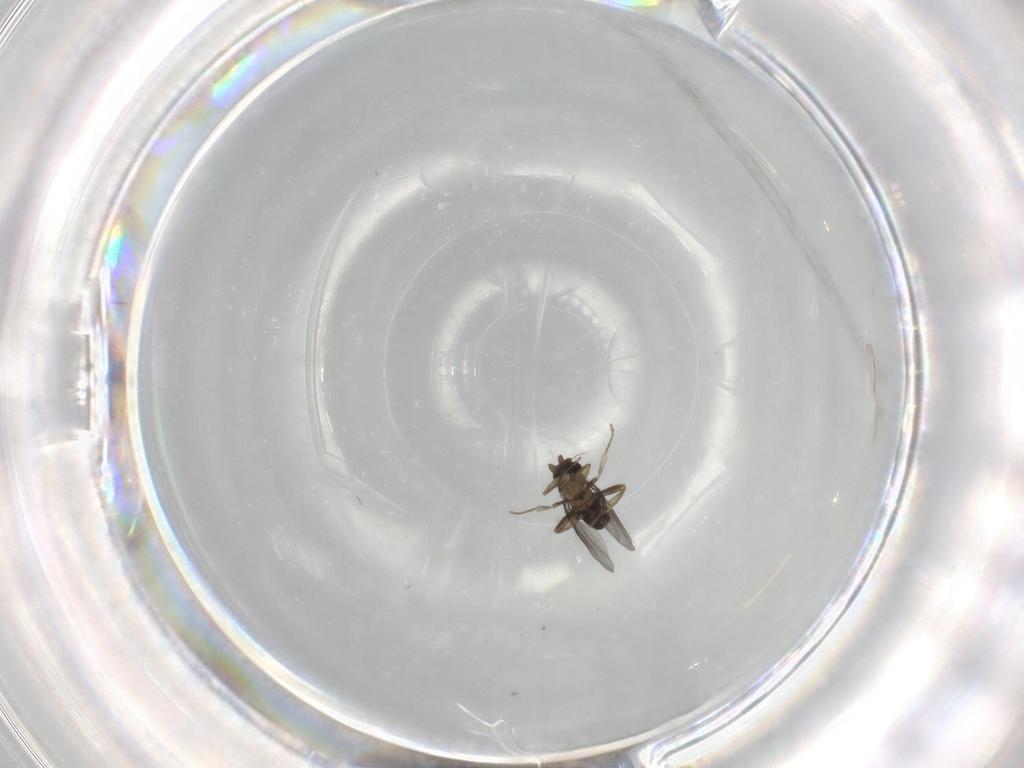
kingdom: Animalia
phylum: Arthropoda
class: Insecta
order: Diptera
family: Cecidomyiidae
